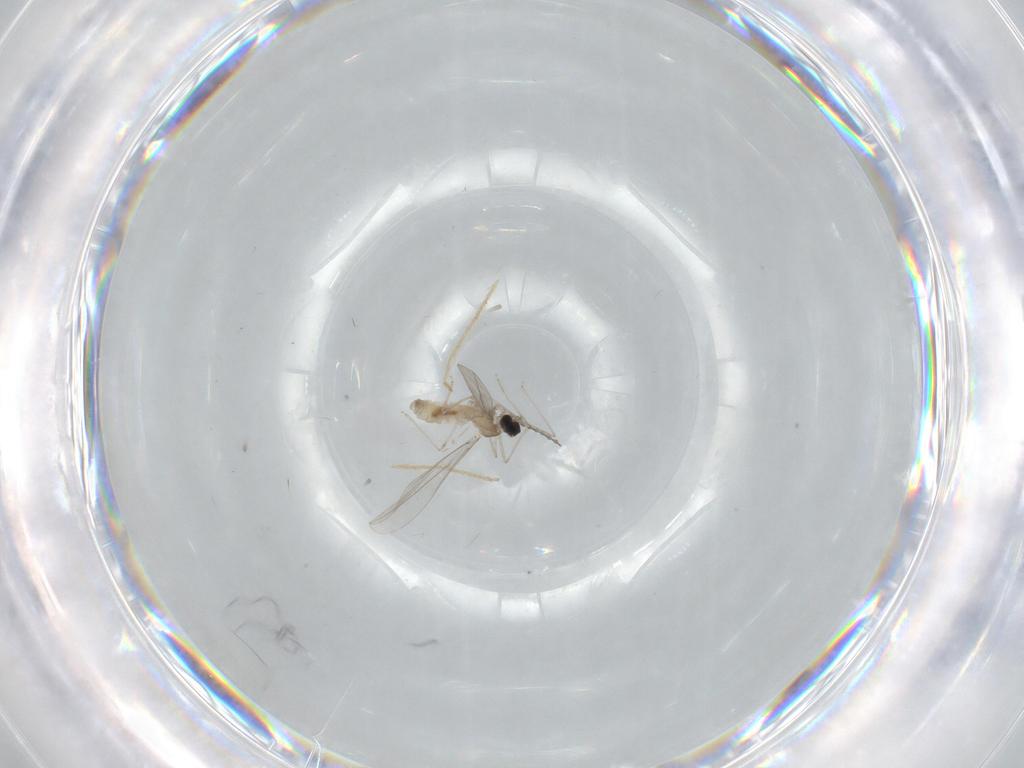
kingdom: Animalia
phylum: Arthropoda
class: Insecta
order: Diptera
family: Chironomidae
